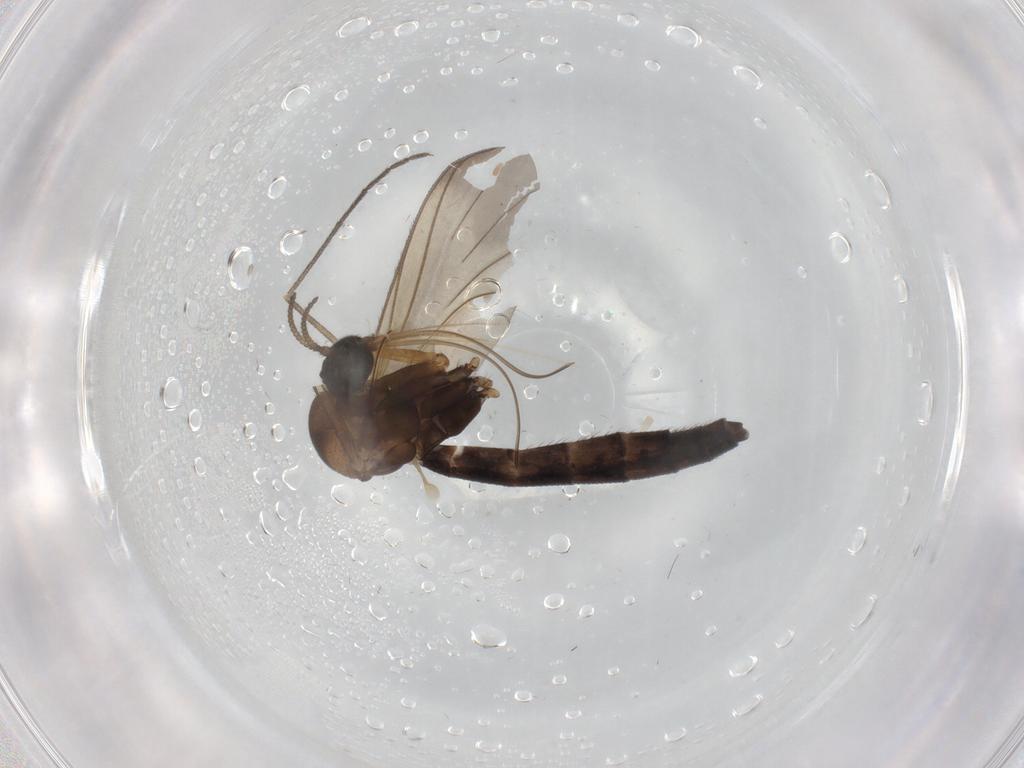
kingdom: Animalia
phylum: Arthropoda
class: Insecta
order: Diptera
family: Keroplatidae
